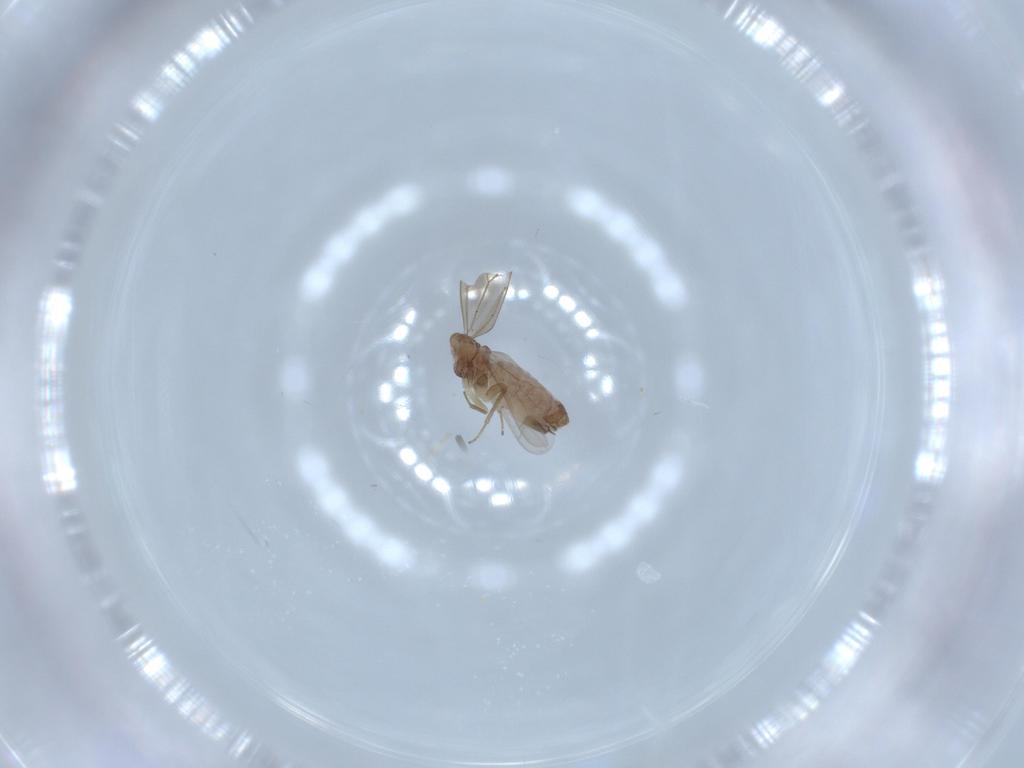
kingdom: Animalia
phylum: Arthropoda
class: Insecta
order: Psocodea
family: Ectopsocidae
